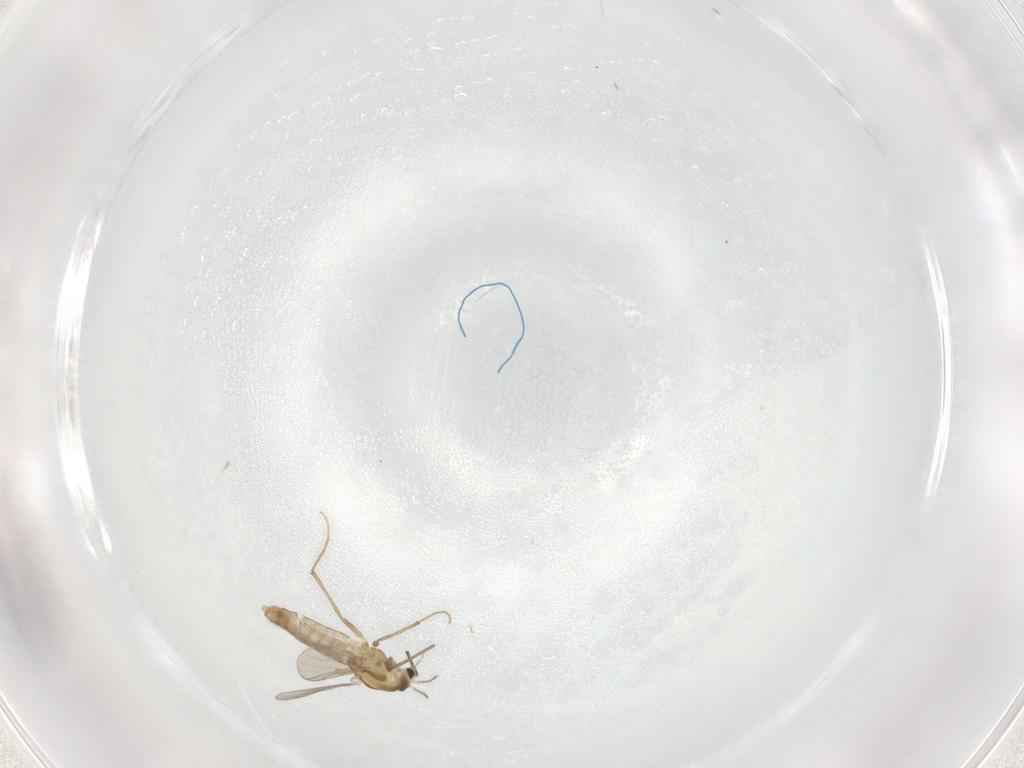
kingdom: Animalia
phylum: Arthropoda
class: Insecta
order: Diptera
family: Chironomidae
